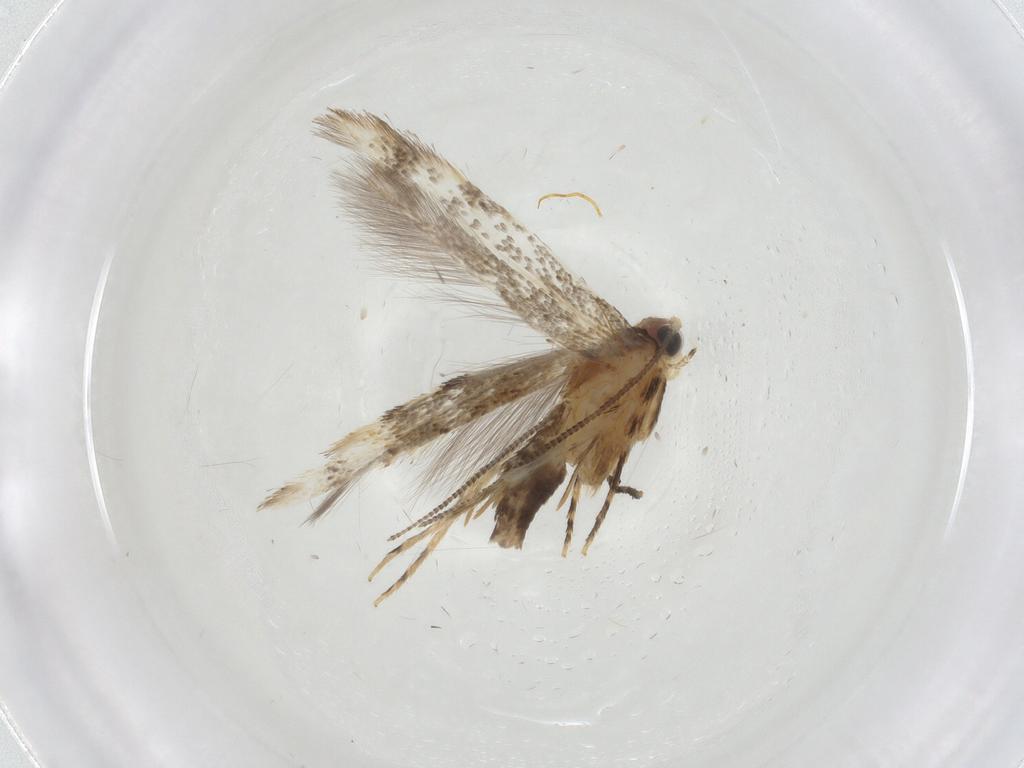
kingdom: Animalia
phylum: Arthropoda
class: Insecta
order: Lepidoptera
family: Tineidae
